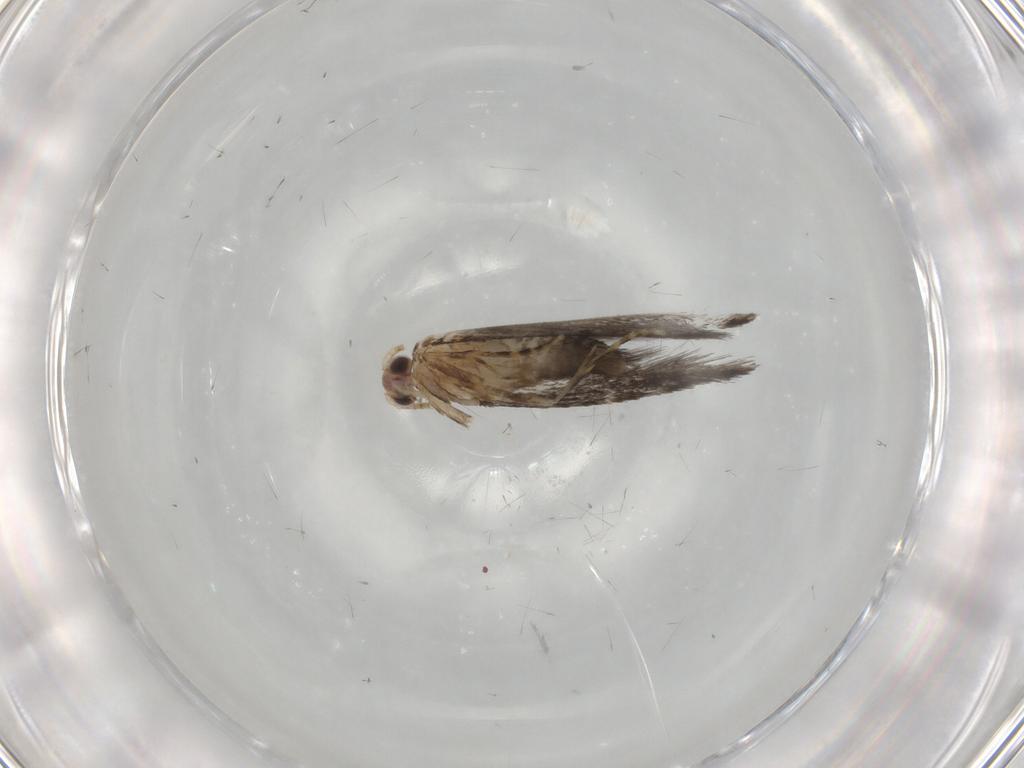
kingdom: Animalia
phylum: Arthropoda
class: Insecta
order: Lepidoptera
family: Tineidae
